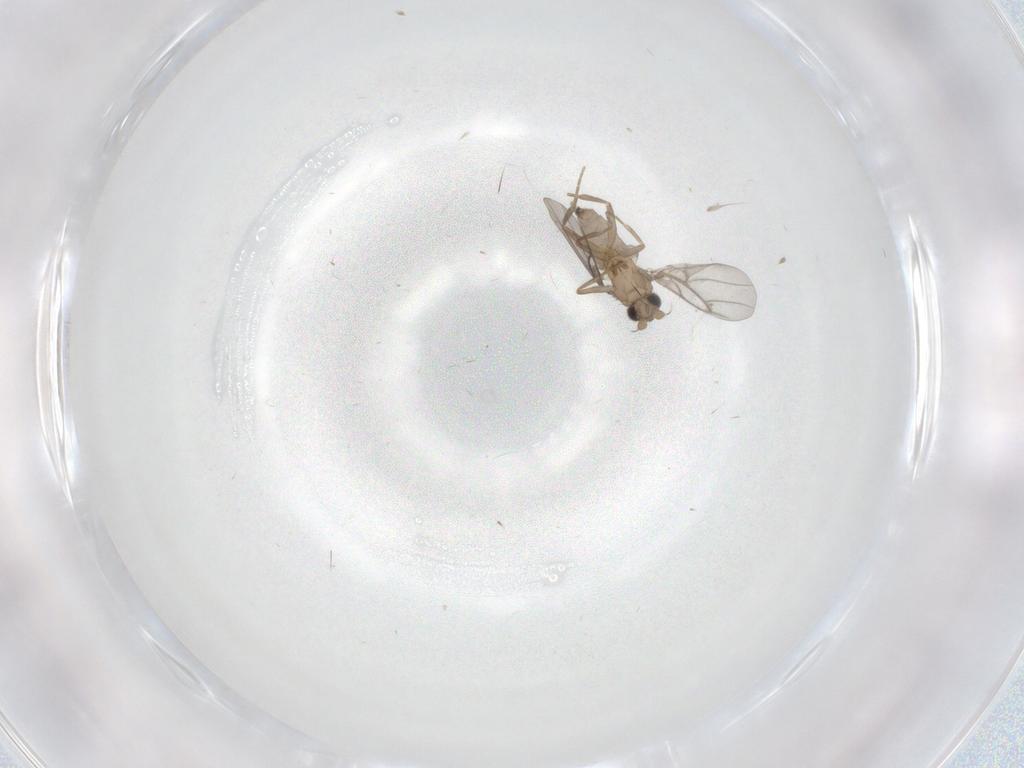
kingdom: Animalia
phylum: Arthropoda
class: Insecta
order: Diptera
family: Cecidomyiidae
